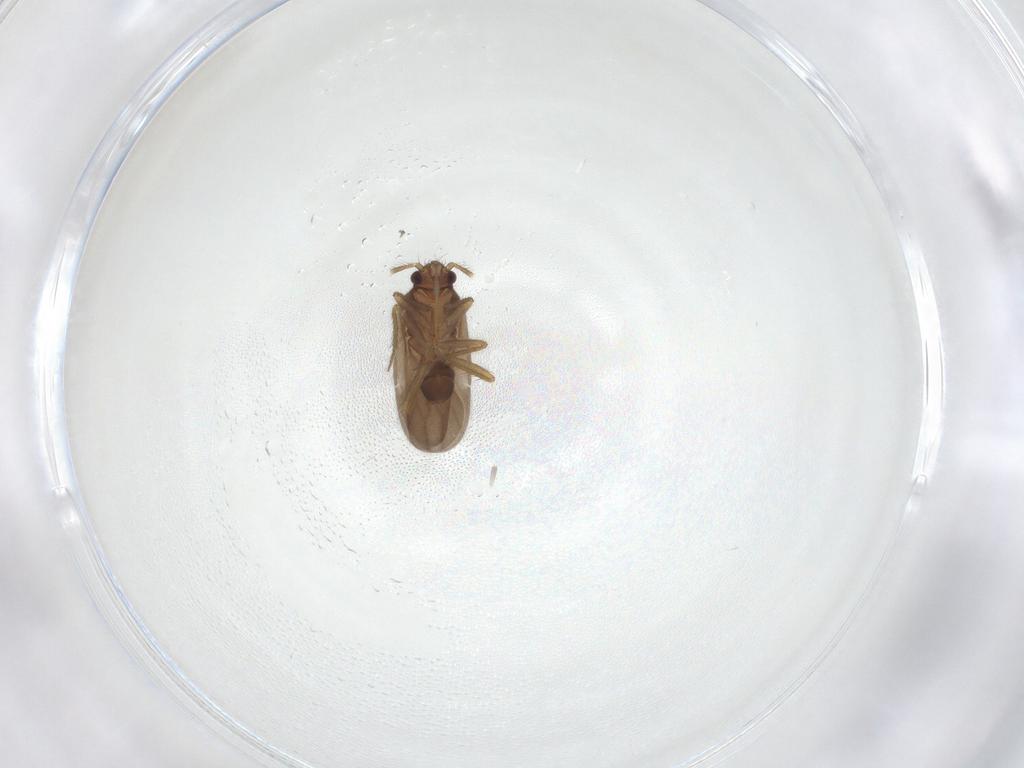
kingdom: Animalia
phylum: Arthropoda
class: Insecta
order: Hemiptera
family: Ceratocombidae
